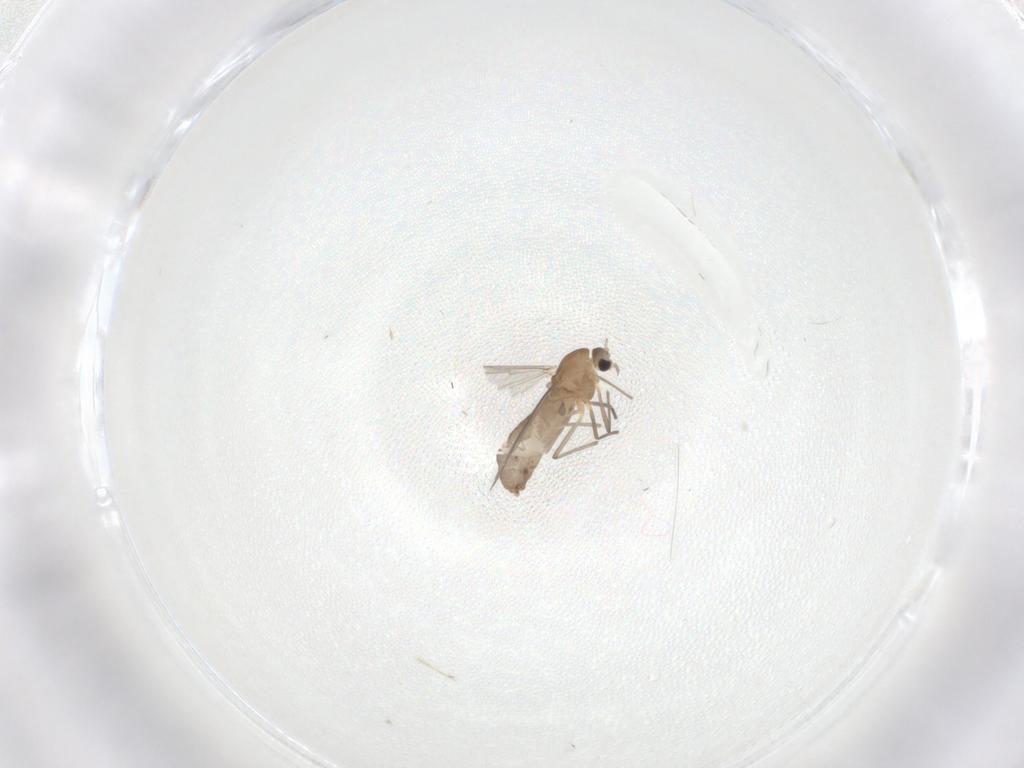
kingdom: Animalia
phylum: Arthropoda
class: Insecta
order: Diptera
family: Chironomidae
